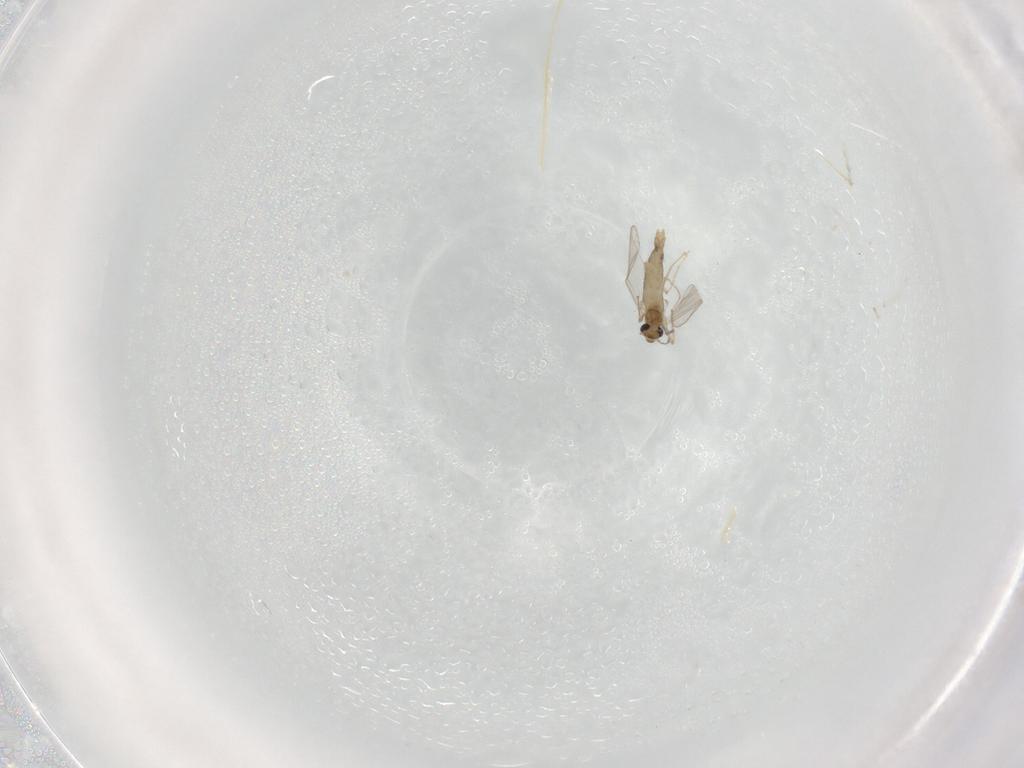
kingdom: Animalia
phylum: Arthropoda
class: Insecta
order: Diptera
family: Chironomidae
